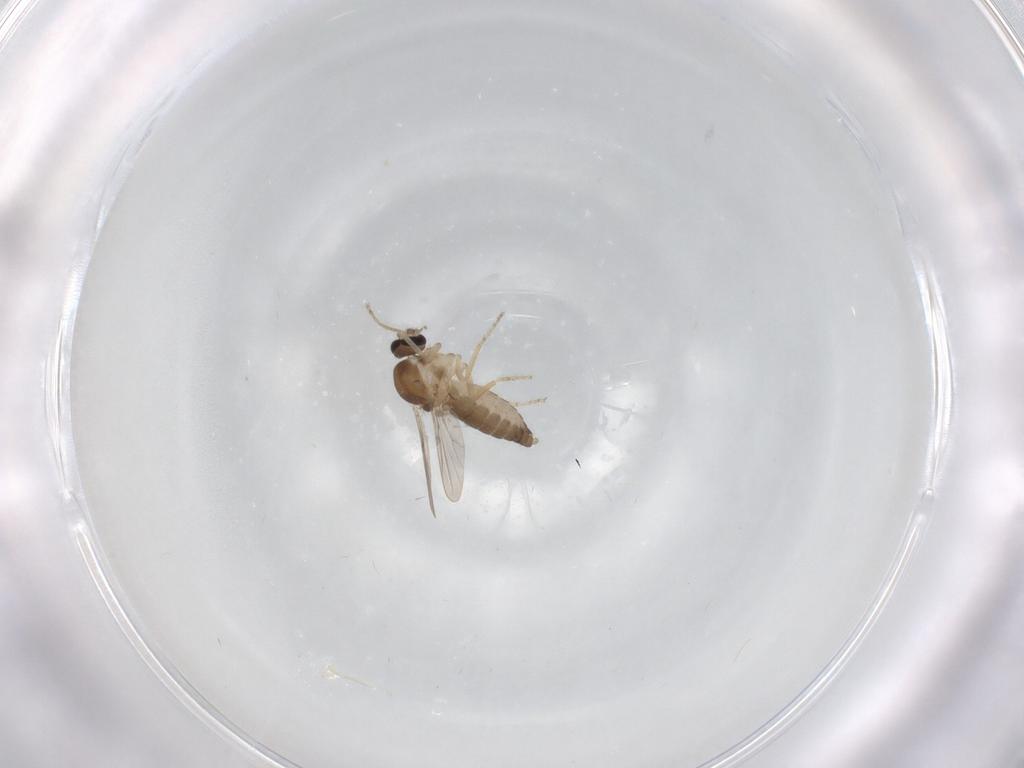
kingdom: Animalia
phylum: Arthropoda
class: Insecta
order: Diptera
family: Ceratopogonidae
